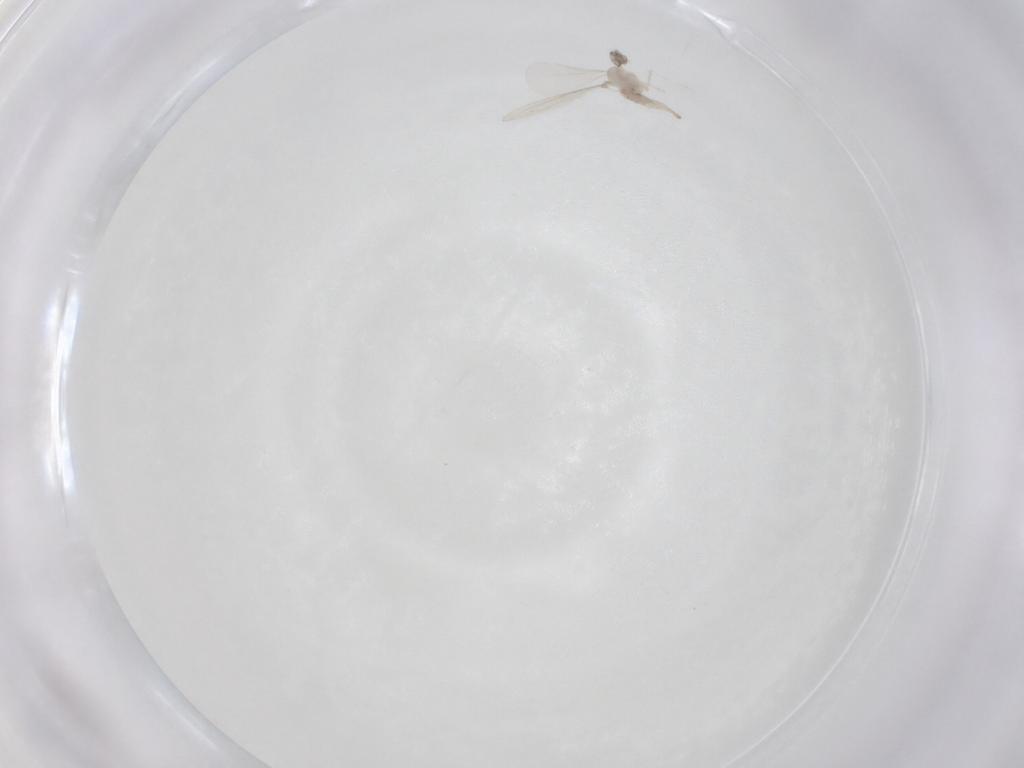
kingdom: Animalia
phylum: Arthropoda
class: Insecta
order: Diptera
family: Cecidomyiidae
